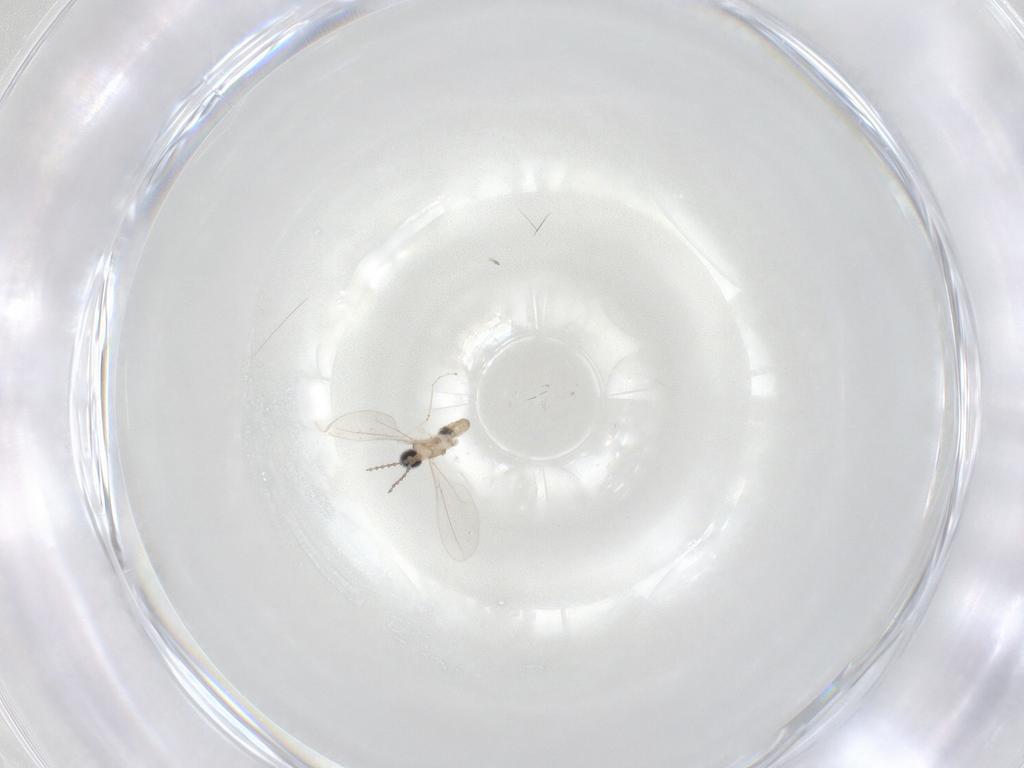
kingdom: Animalia
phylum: Arthropoda
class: Insecta
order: Diptera
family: Cecidomyiidae
